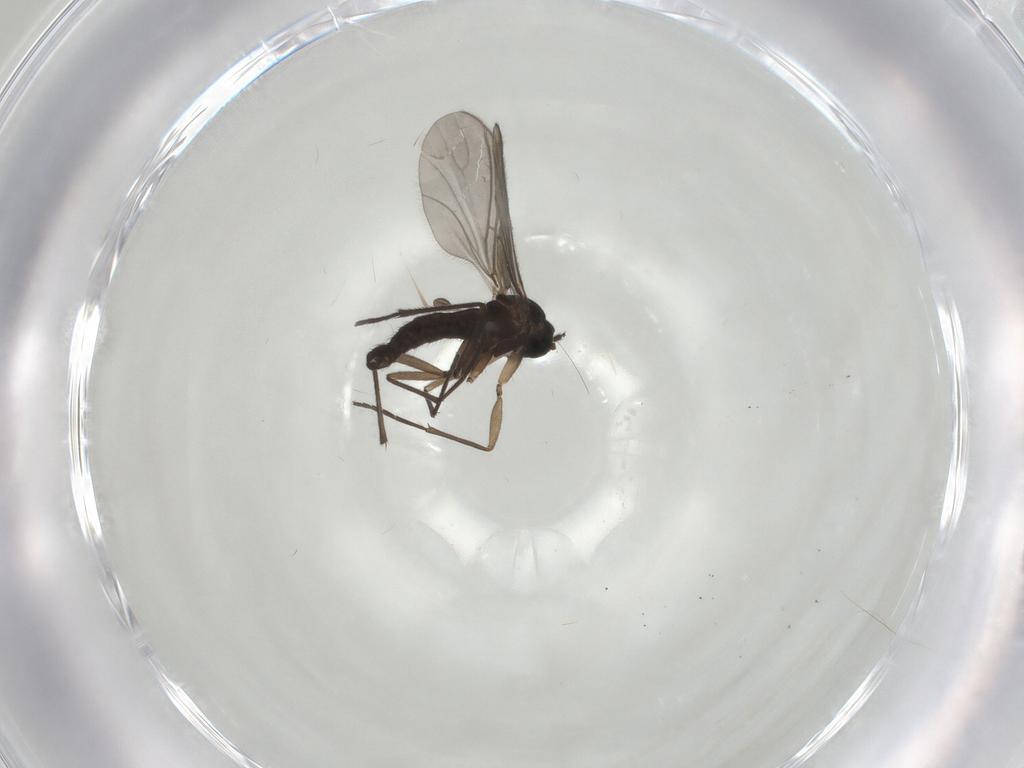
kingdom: Animalia
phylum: Arthropoda
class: Insecta
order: Diptera
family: Sciaridae
